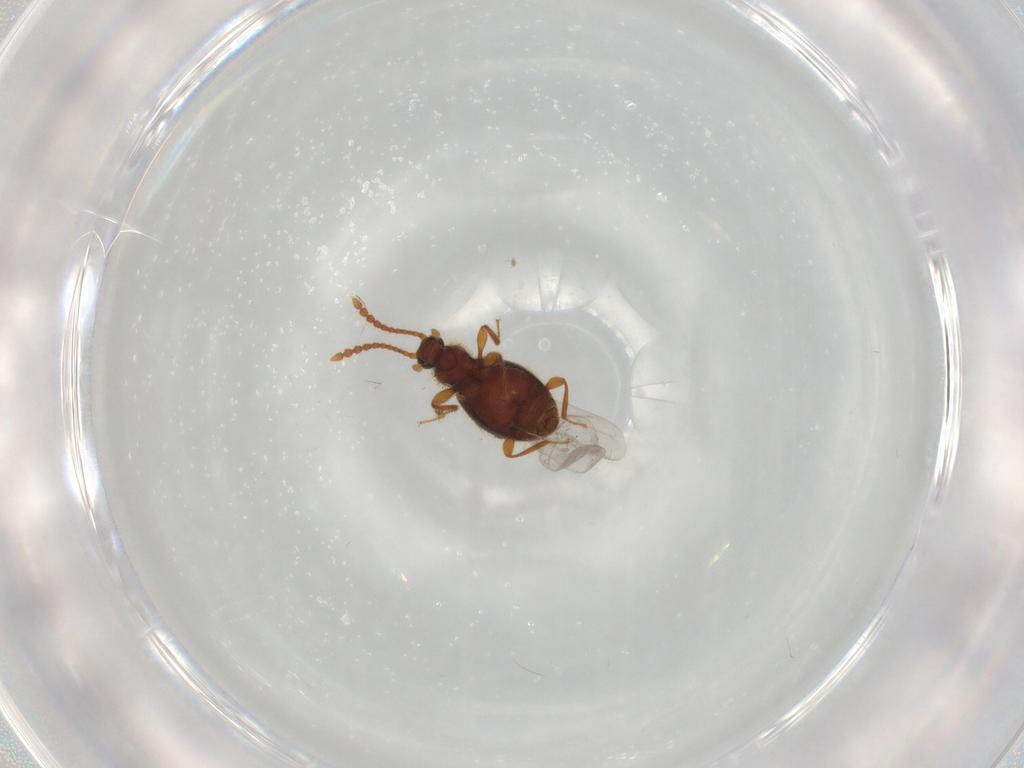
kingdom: Animalia
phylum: Arthropoda
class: Insecta
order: Coleoptera
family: Staphylinidae
